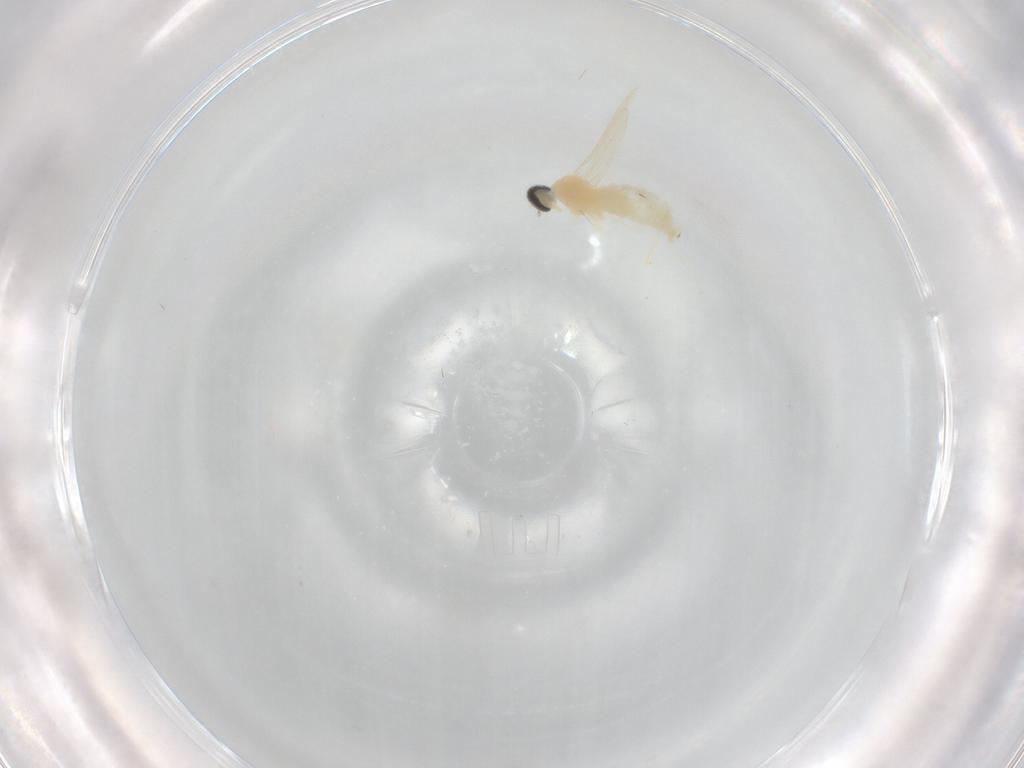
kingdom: Animalia
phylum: Arthropoda
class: Insecta
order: Diptera
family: Cecidomyiidae
